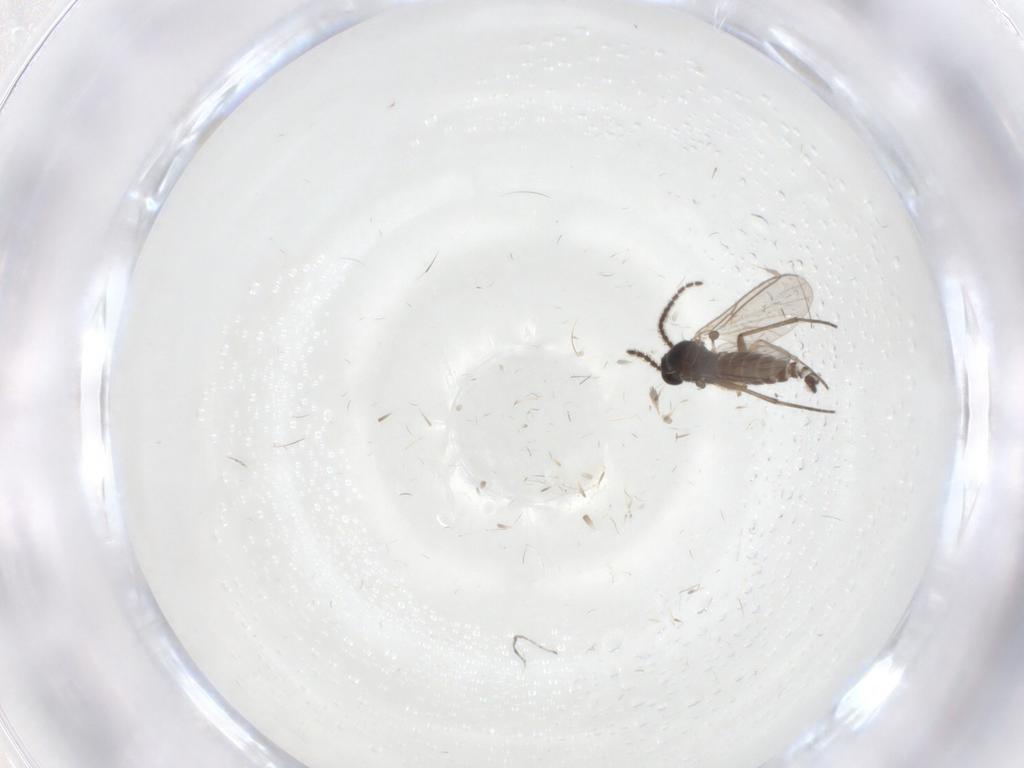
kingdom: Animalia
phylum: Arthropoda
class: Insecta
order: Diptera
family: Cecidomyiidae
